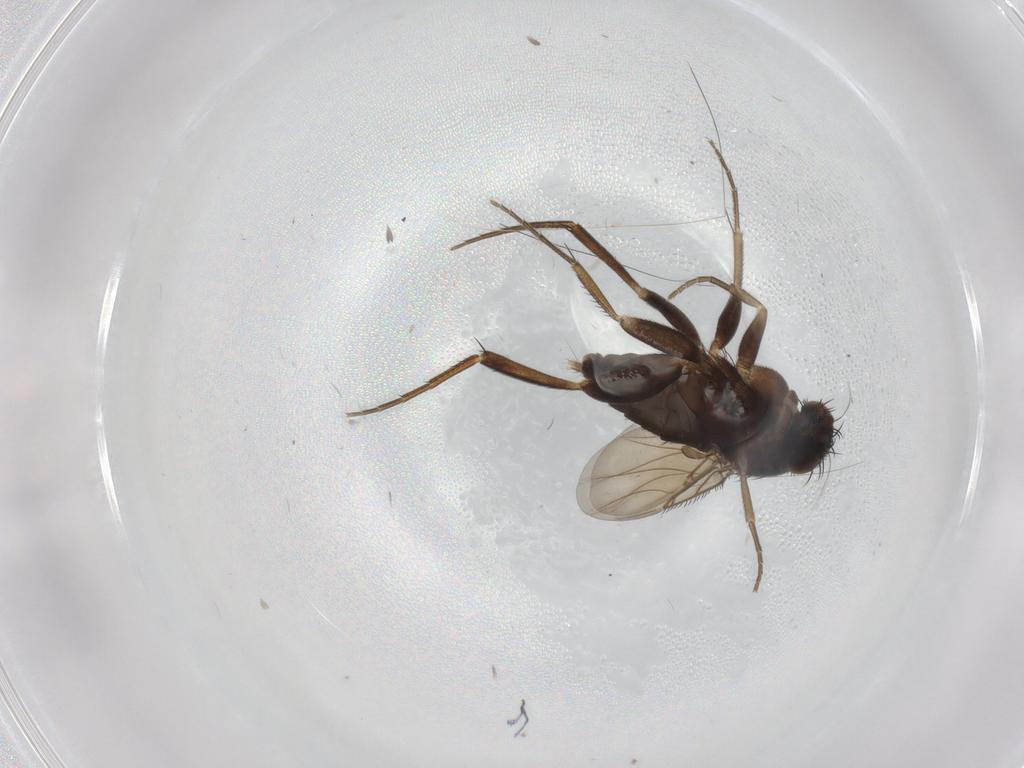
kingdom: Animalia
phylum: Arthropoda
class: Insecta
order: Diptera
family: Phoridae
